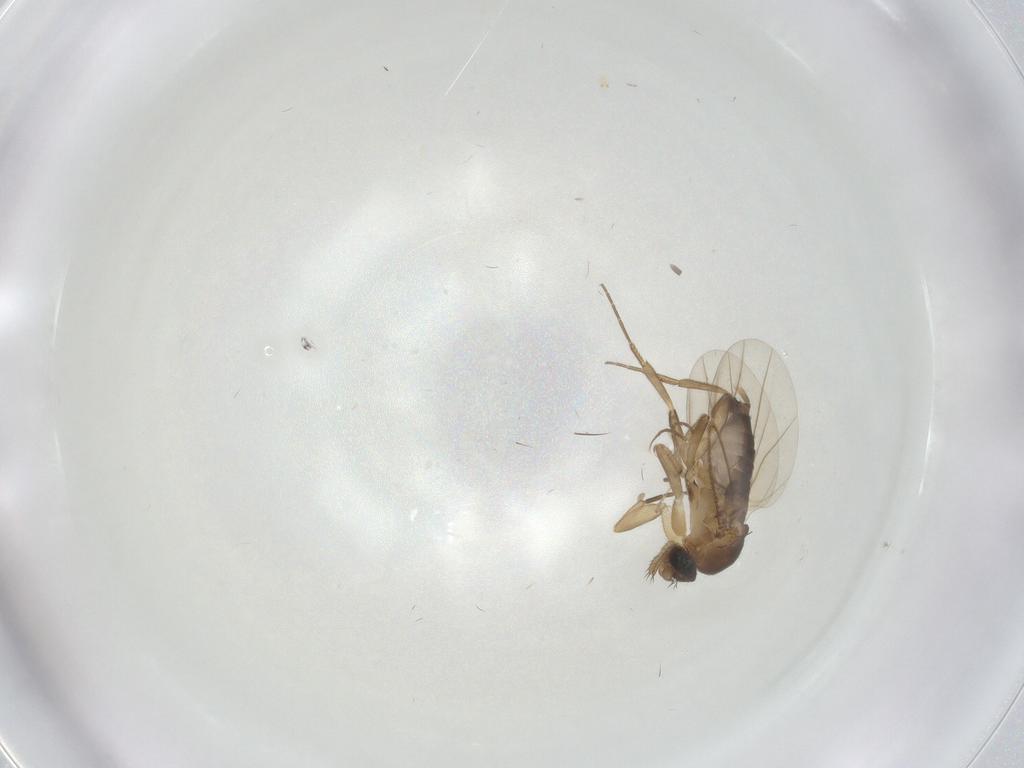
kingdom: Animalia
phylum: Arthropoda
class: Insecta
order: Diptera
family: Phoridae
